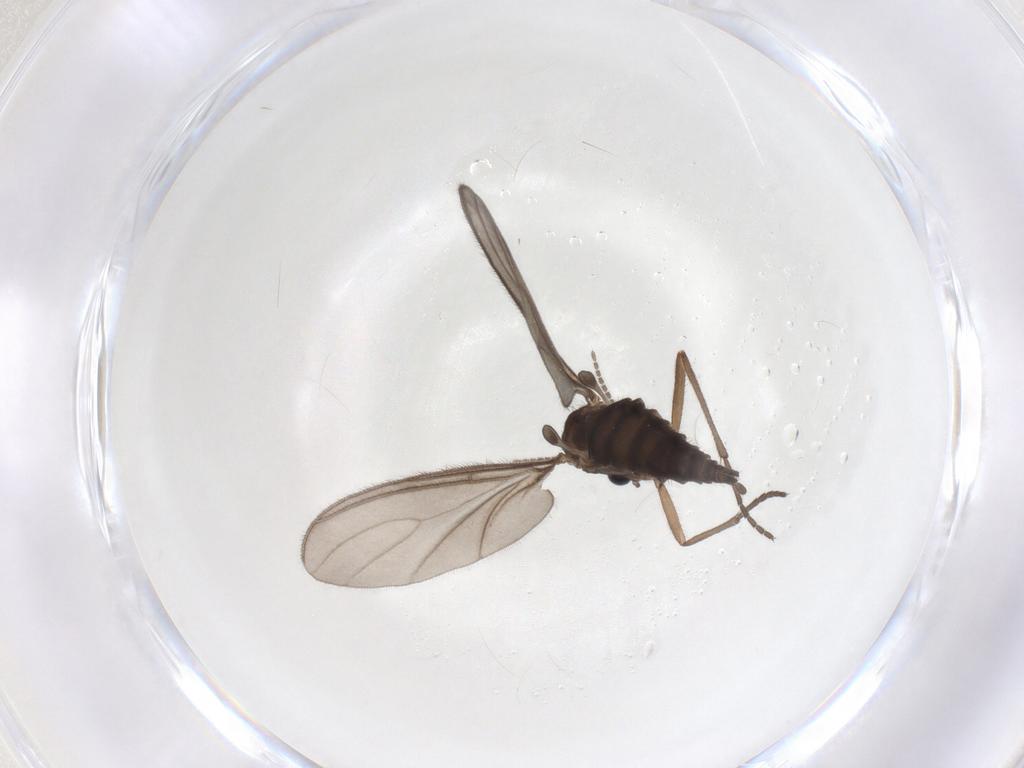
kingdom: Animalia
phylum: Arthropoda
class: Insecta
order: Diptera
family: Sciaridae
